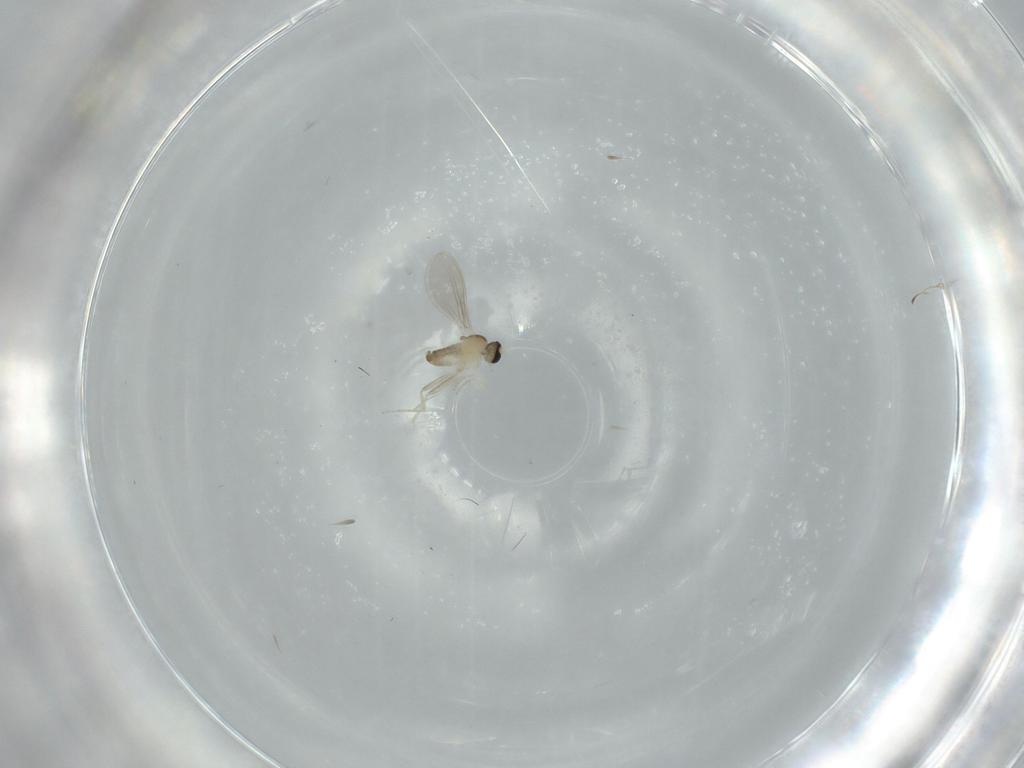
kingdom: Animalia
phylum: Arthropoda
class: Insecta
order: Diptera
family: Cecidomyiidae
